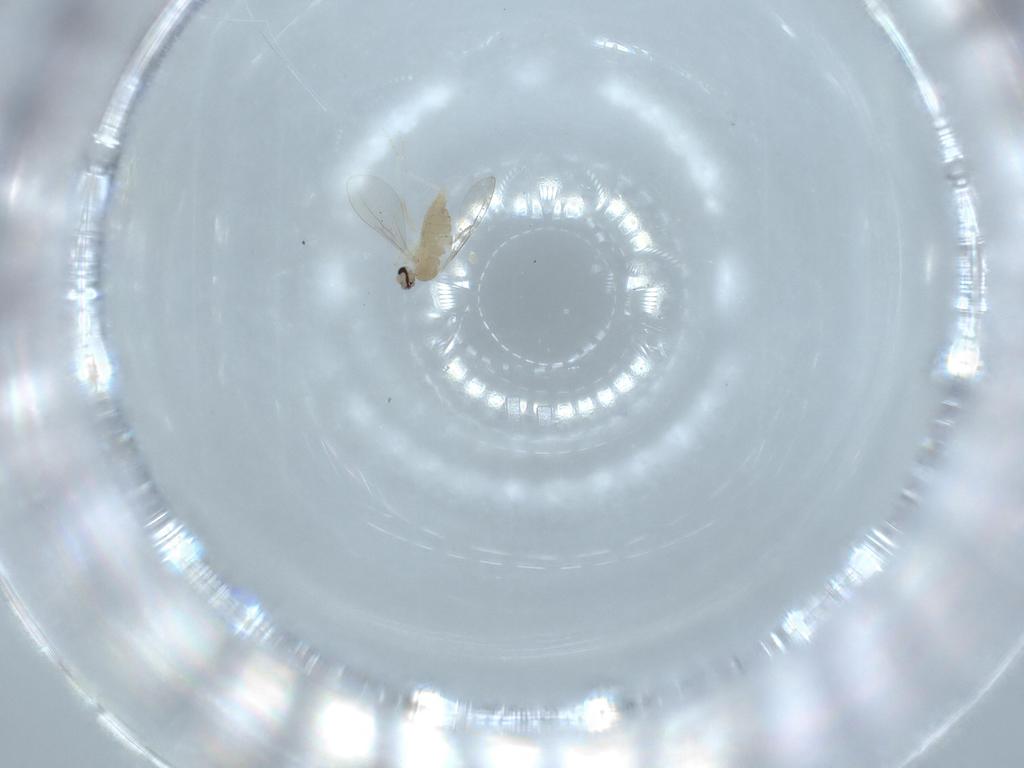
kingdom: Animalia
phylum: Arthropoda
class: Insecta
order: Diptera
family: Cecidomyiidae
